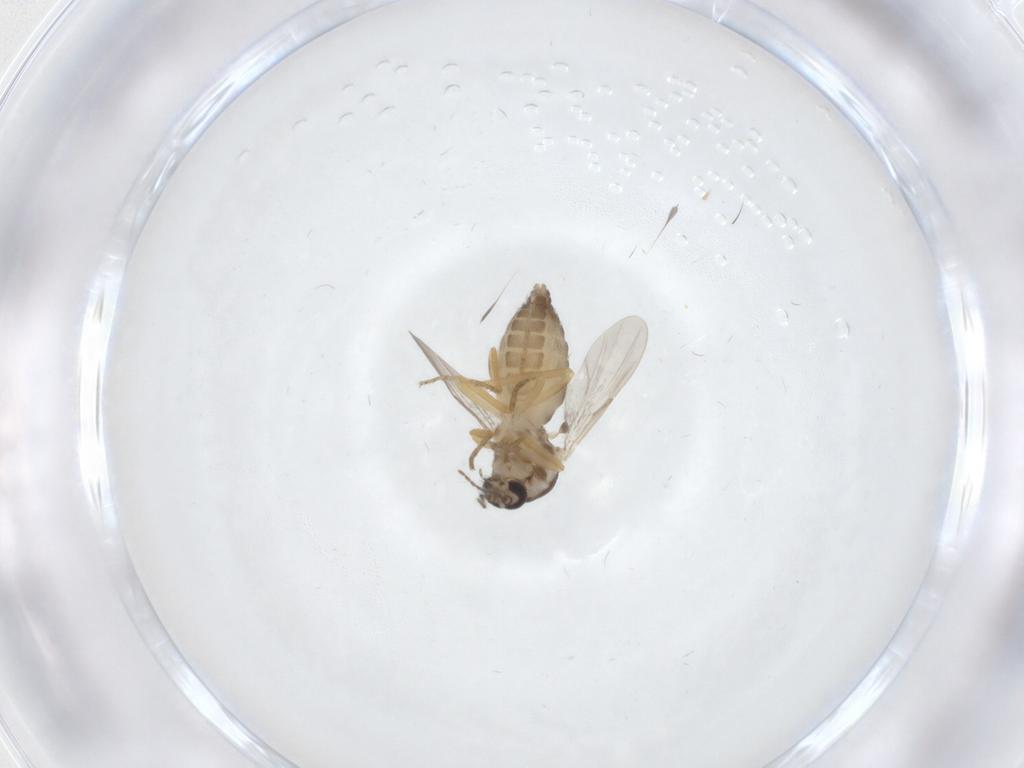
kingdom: Animalia
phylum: Arthropoda
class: Insecta
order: Diptera
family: Ceratopogonidae
